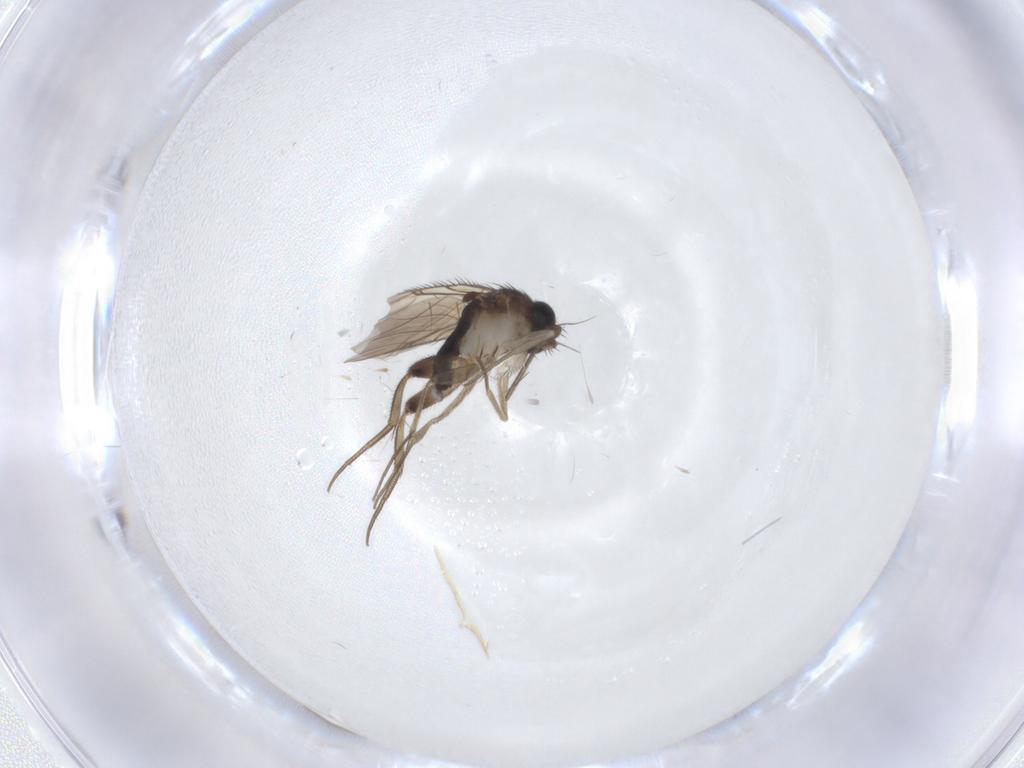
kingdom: Animalia
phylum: Arthropoda
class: Insecta
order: Diptera
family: Phoridae
